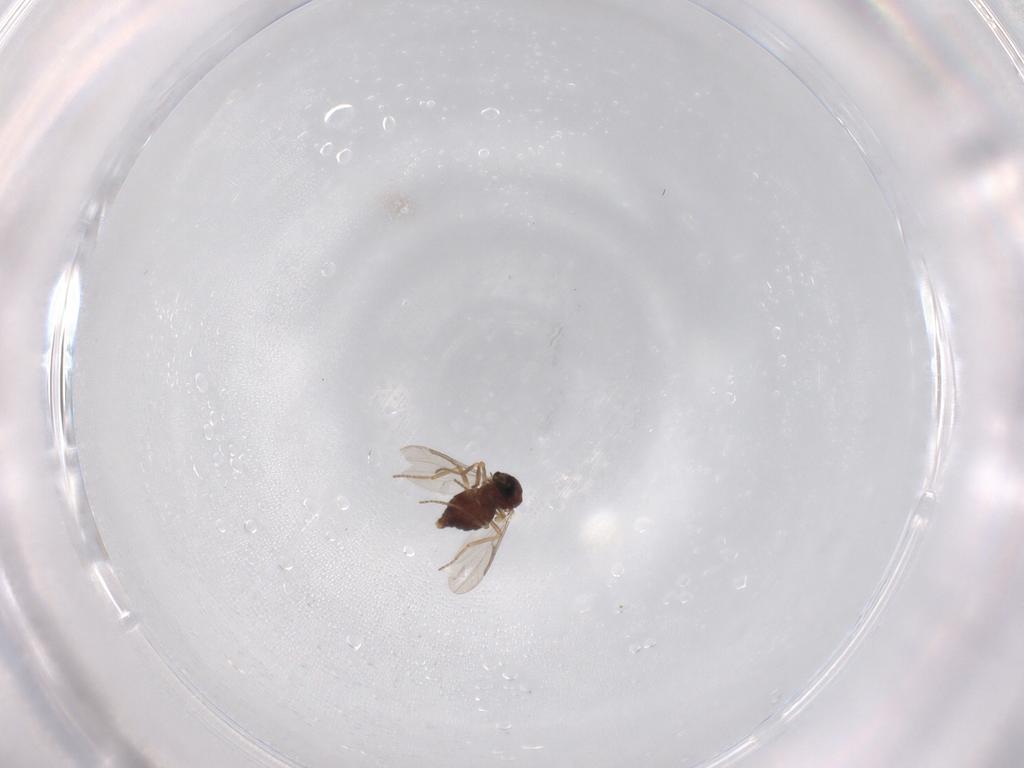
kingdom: Animalia
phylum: Arthropoda
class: Insecta
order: Diptera
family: Ceratopogonidae
